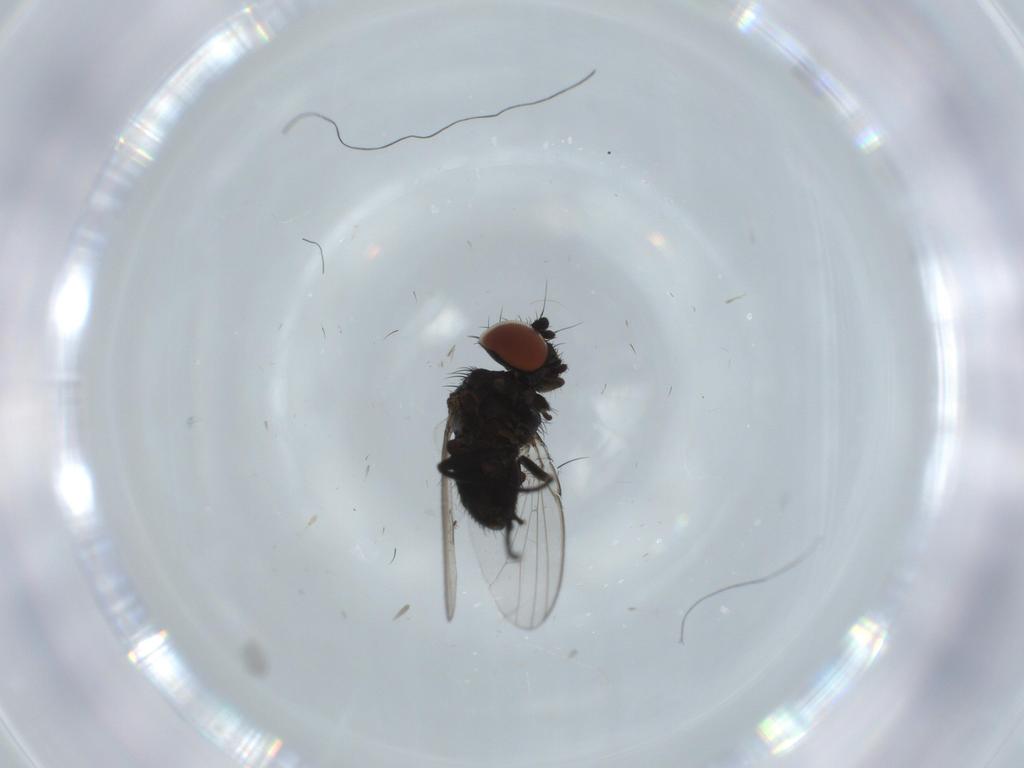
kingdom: Animalia
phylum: Arthropoda
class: Insecta
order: Diptera
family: Milichiidae
